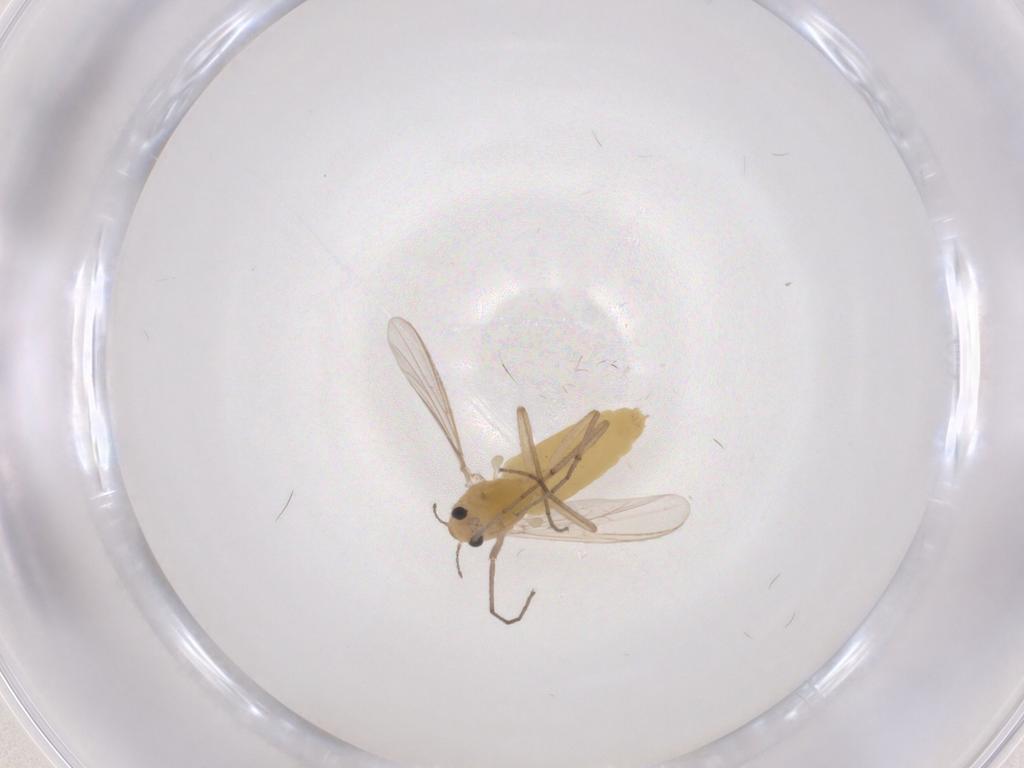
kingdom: Animalia
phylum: Arthropoda
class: Insecta
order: Diptera
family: Chironomidae
